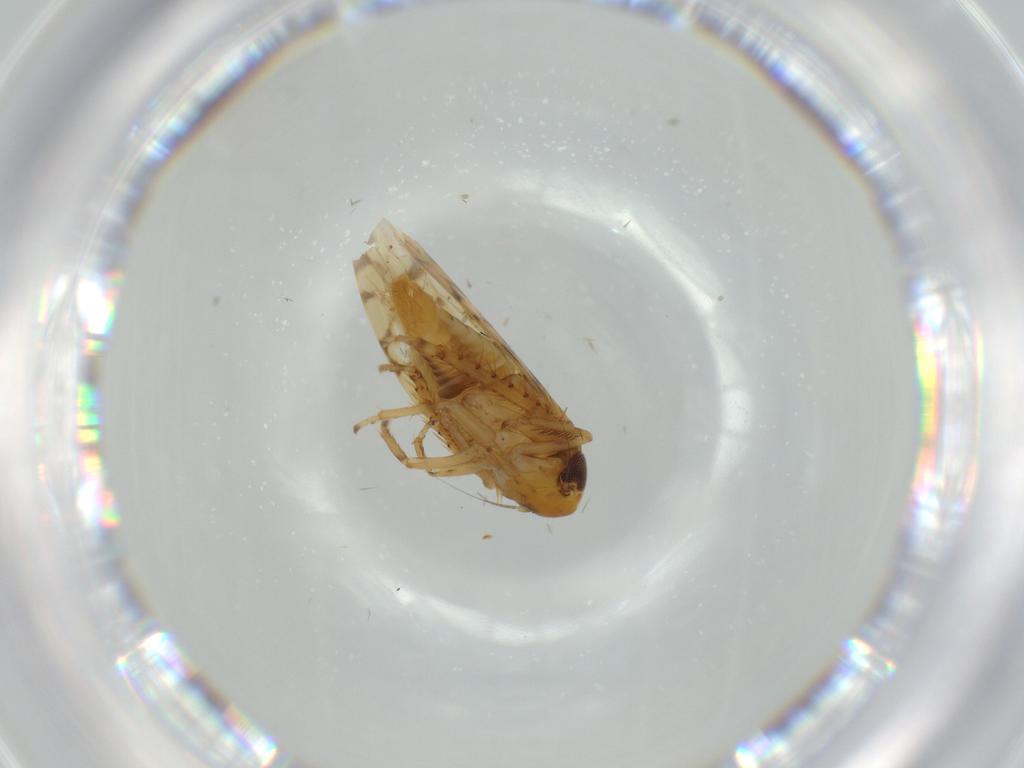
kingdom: Animalia
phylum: Arthropoda
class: Insecta
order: Hemiptera
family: Cicadellidae
